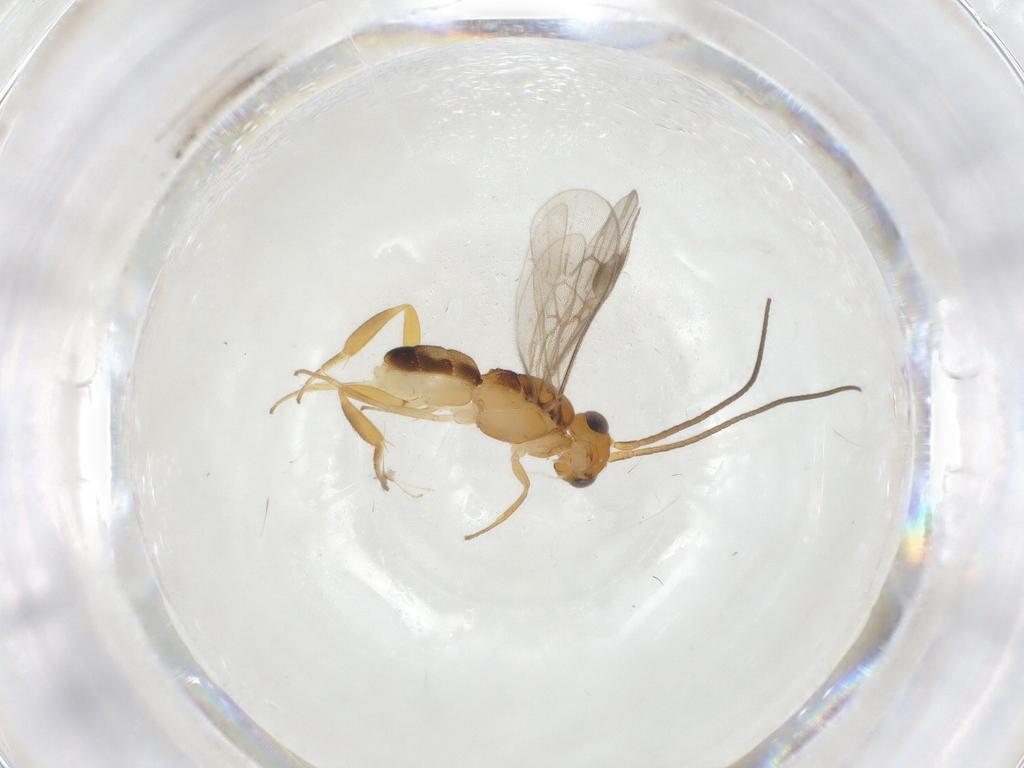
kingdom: Animalia
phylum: Arthropoda
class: Insecta
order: Hymenoptera
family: Braconidae
